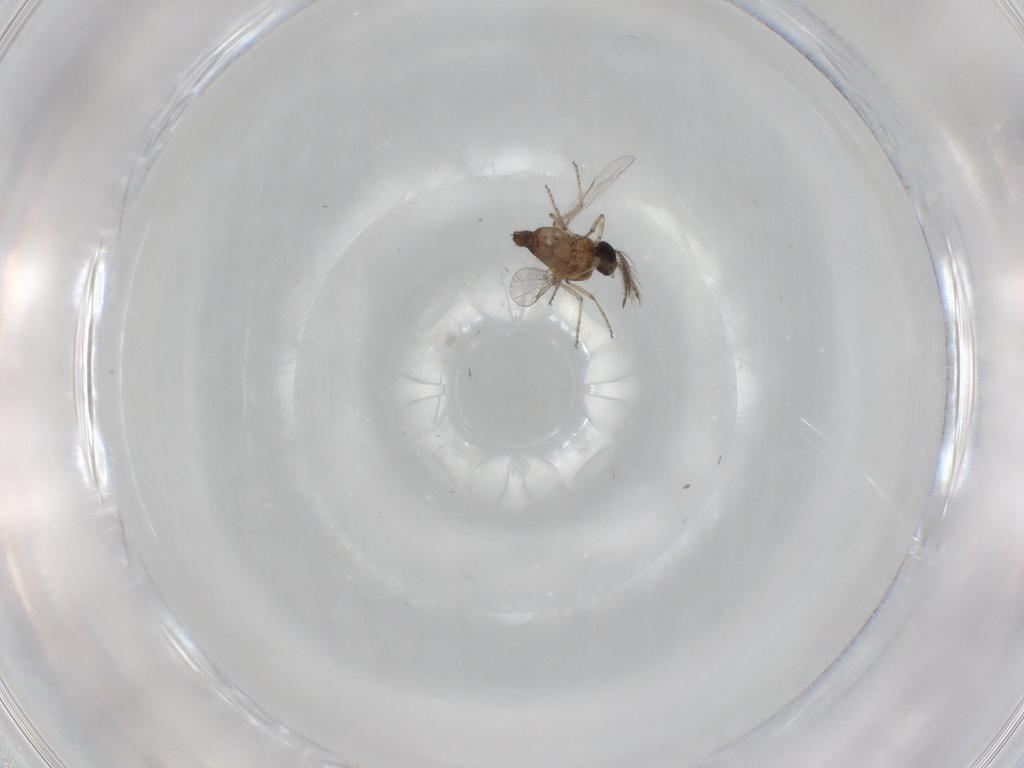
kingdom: Animalia
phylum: Arthropoda
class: Insecta
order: Diptera
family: Ceratopogonidae
